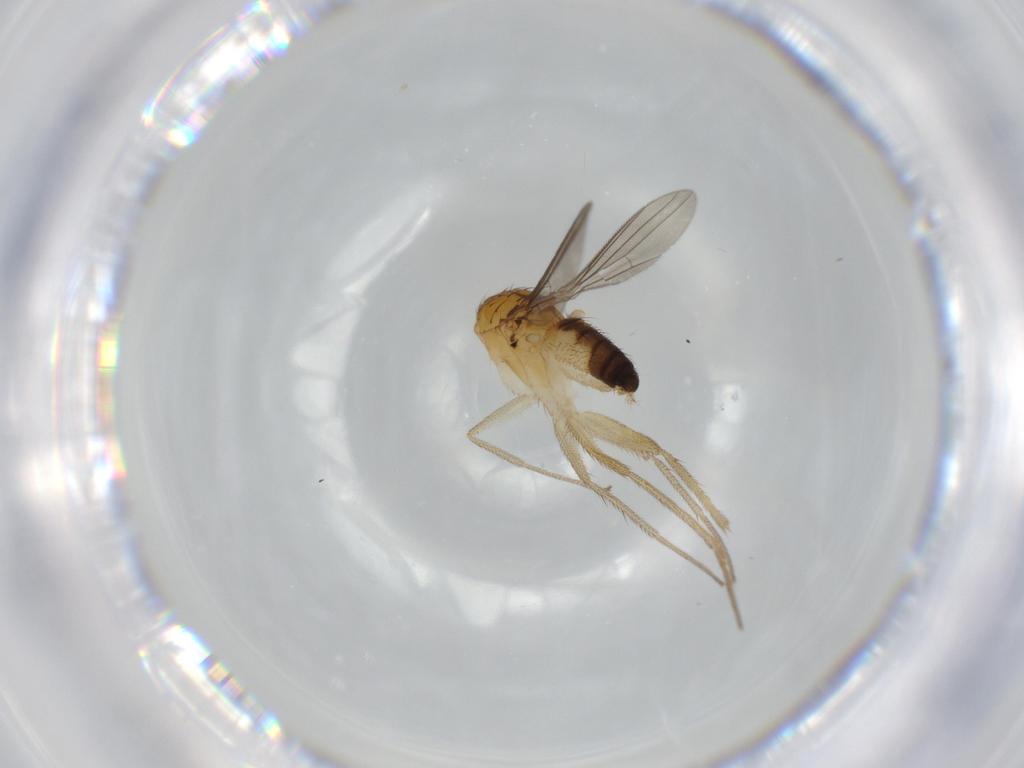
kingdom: Animalia
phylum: Arthropoda
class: Insecta
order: Diptera
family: Dolichopodidae
